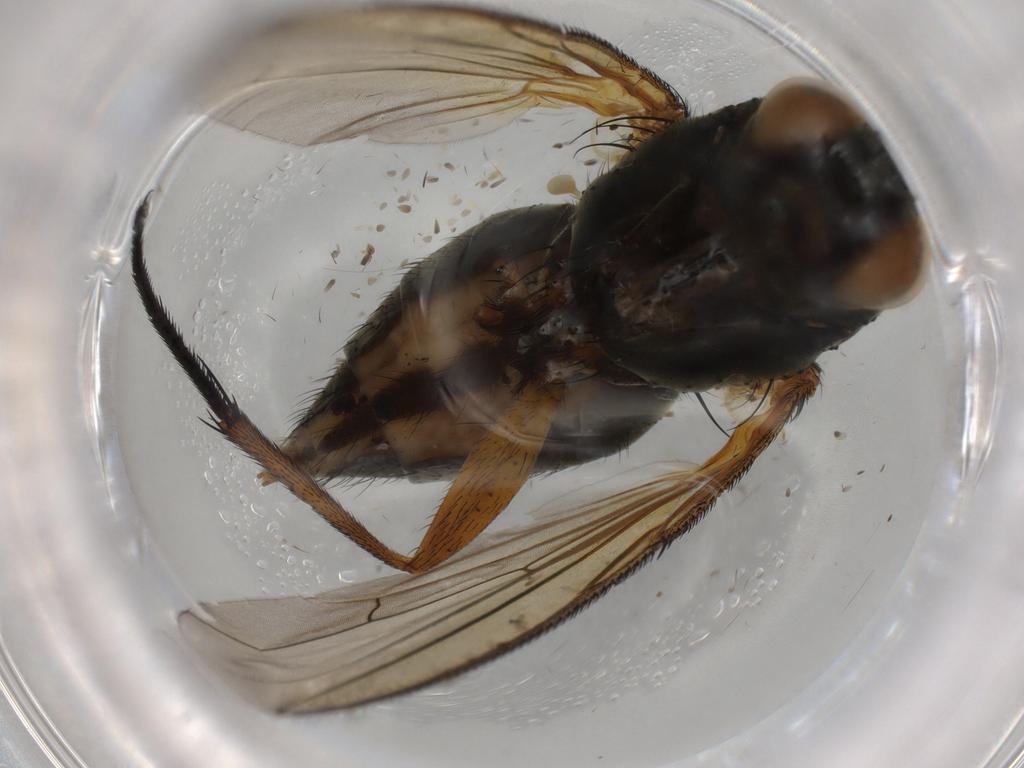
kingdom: Animalia
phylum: Arthropoda
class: Insecta
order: Diptera
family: Anthomyiidae
